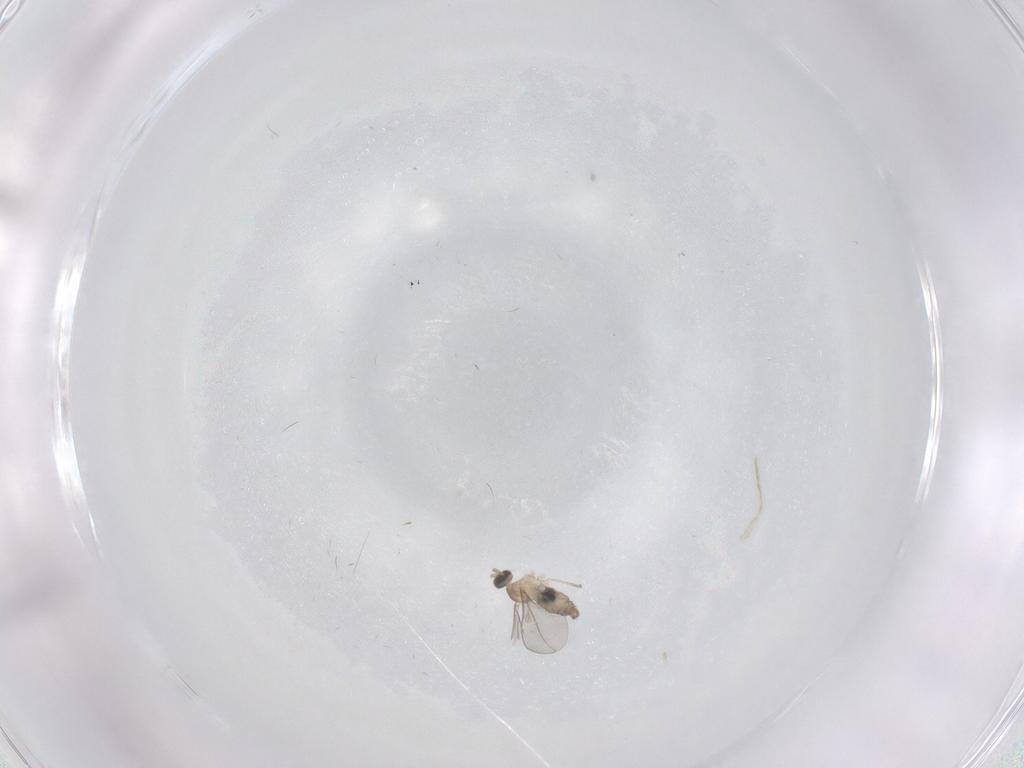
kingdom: Animalia
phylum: Arthropoda
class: Insecta
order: Diptera
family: Cecidomyiidae
